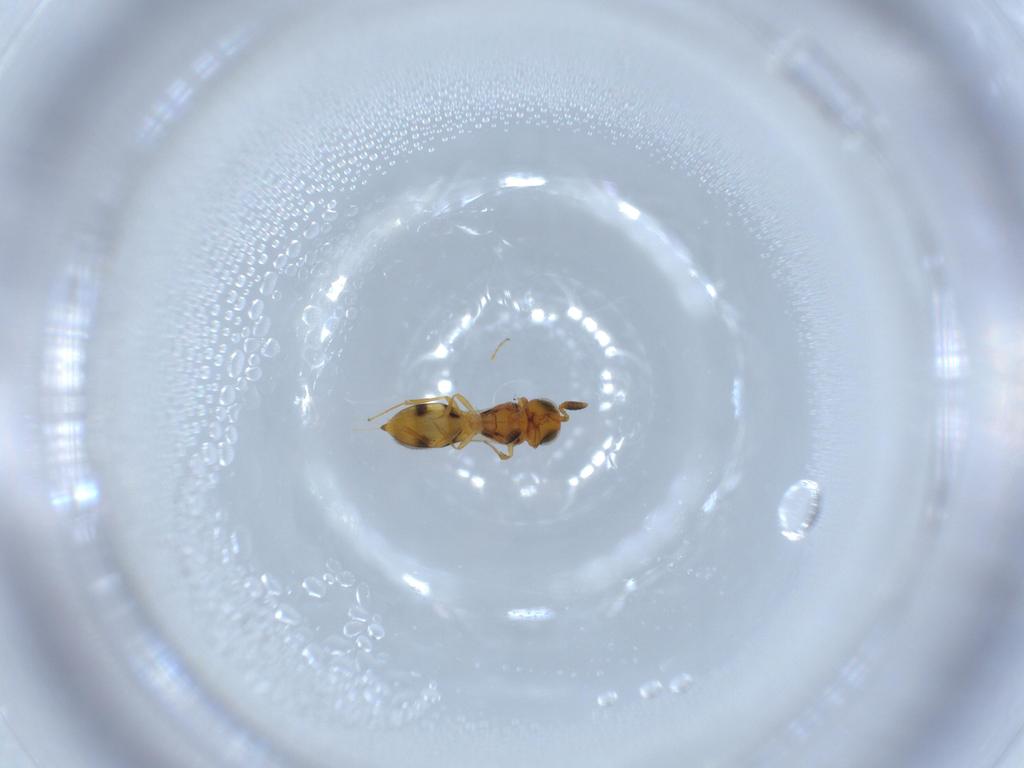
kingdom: Animalia
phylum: Arthropoda
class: Insecta
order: Hymenoptera
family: Scelionidae
